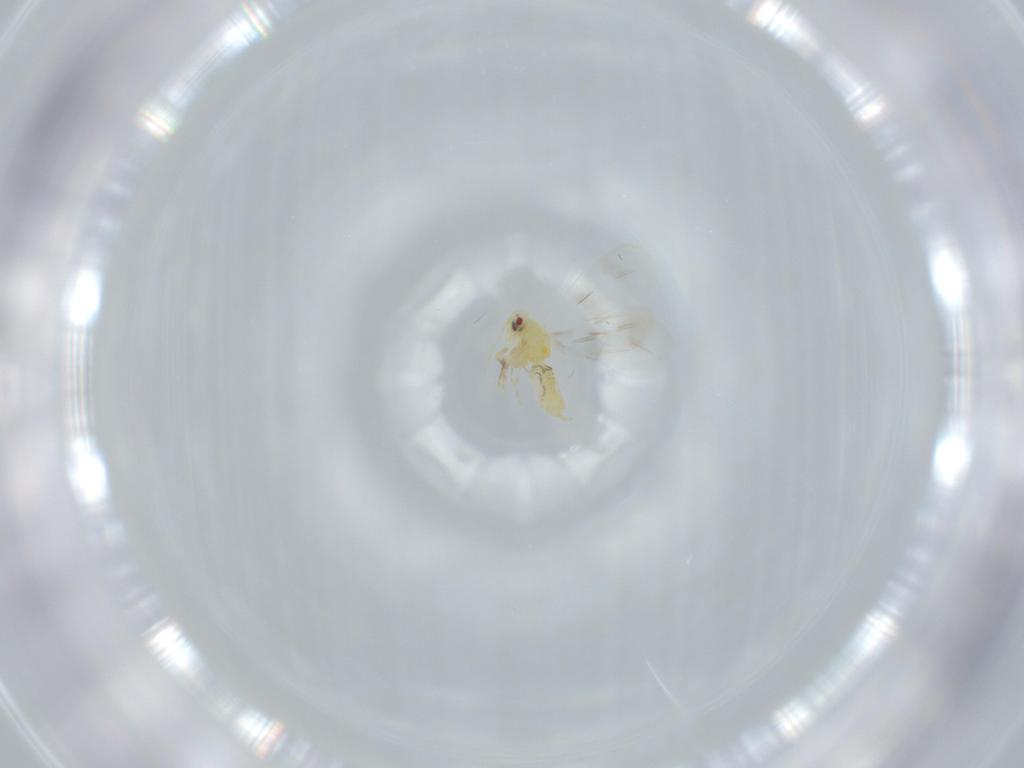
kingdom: Animalia
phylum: Arthropoda
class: Insecta
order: Hemiptera
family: Aleyrodidae
